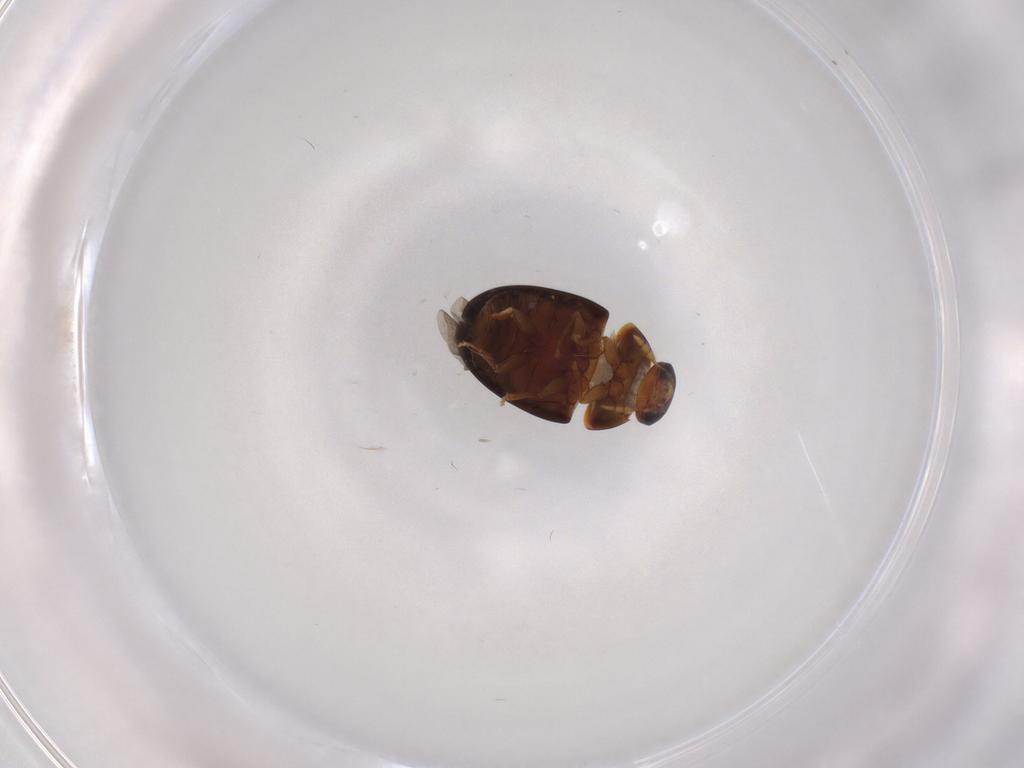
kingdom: Animalia
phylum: Arthropoda
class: Insecta
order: Coleoptera
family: Chrysomelidae
